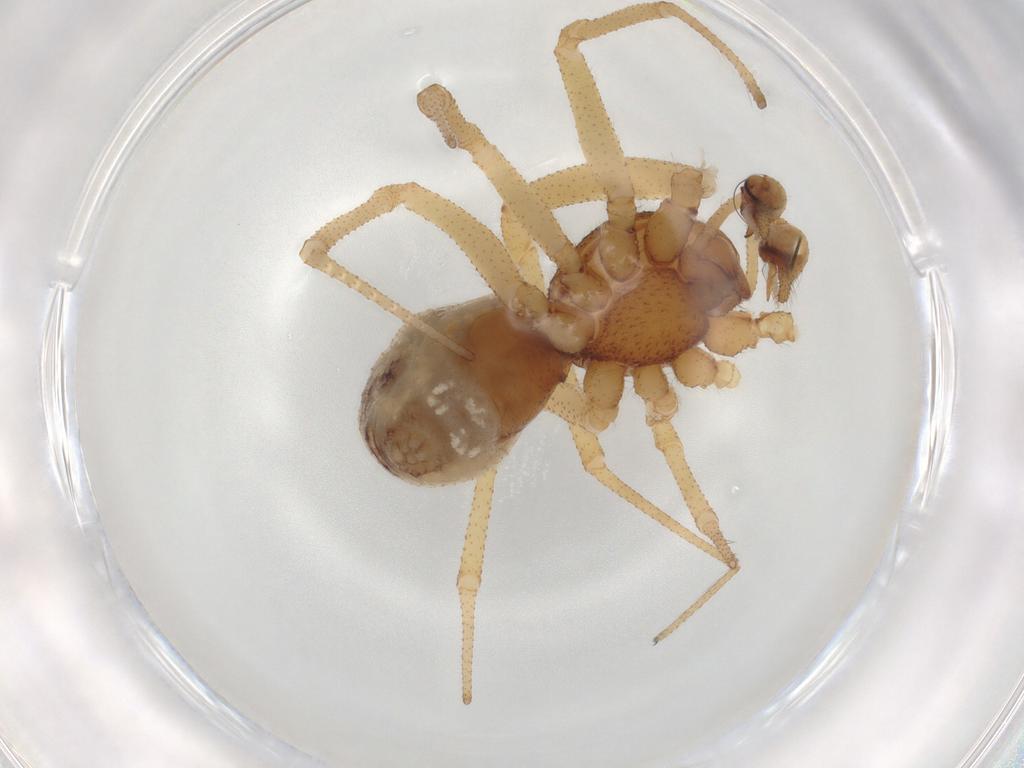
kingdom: Animalia
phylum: Arthropoda
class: Arachnida
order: Araneae
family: Theridiidae
